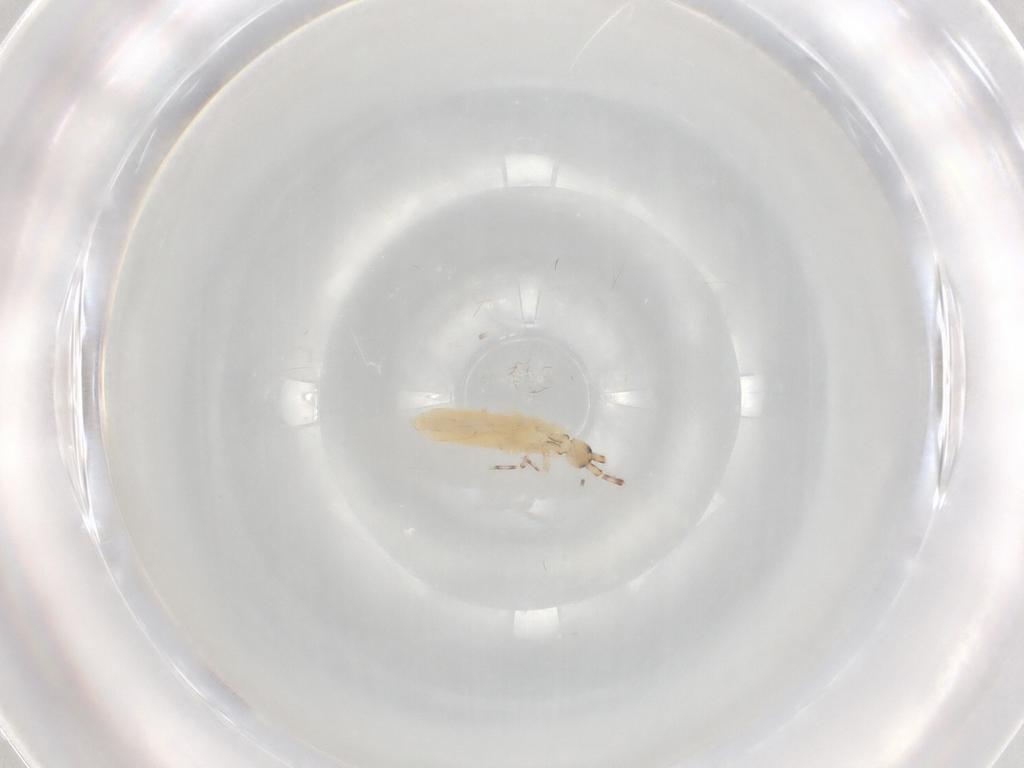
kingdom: Animalia
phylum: Arthropoda
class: Collembola
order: Entomobryomorpha
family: Entomobryidae
